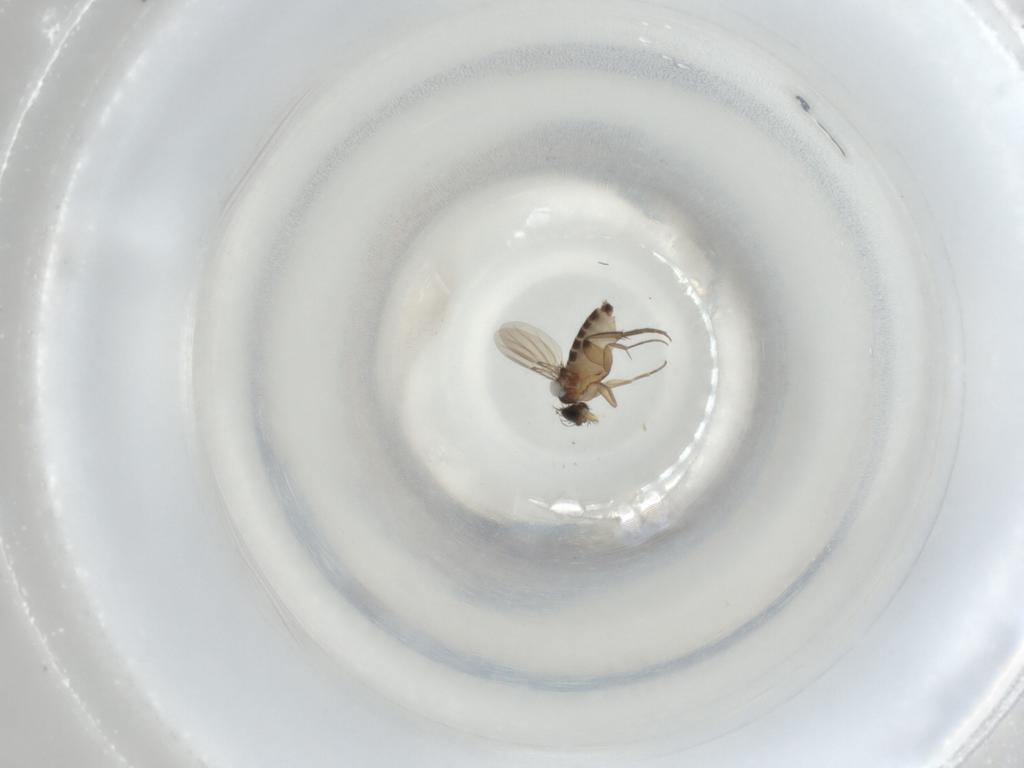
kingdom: Animalia
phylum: Arthropoda
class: Insecta
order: Diptera
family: Phoridae
